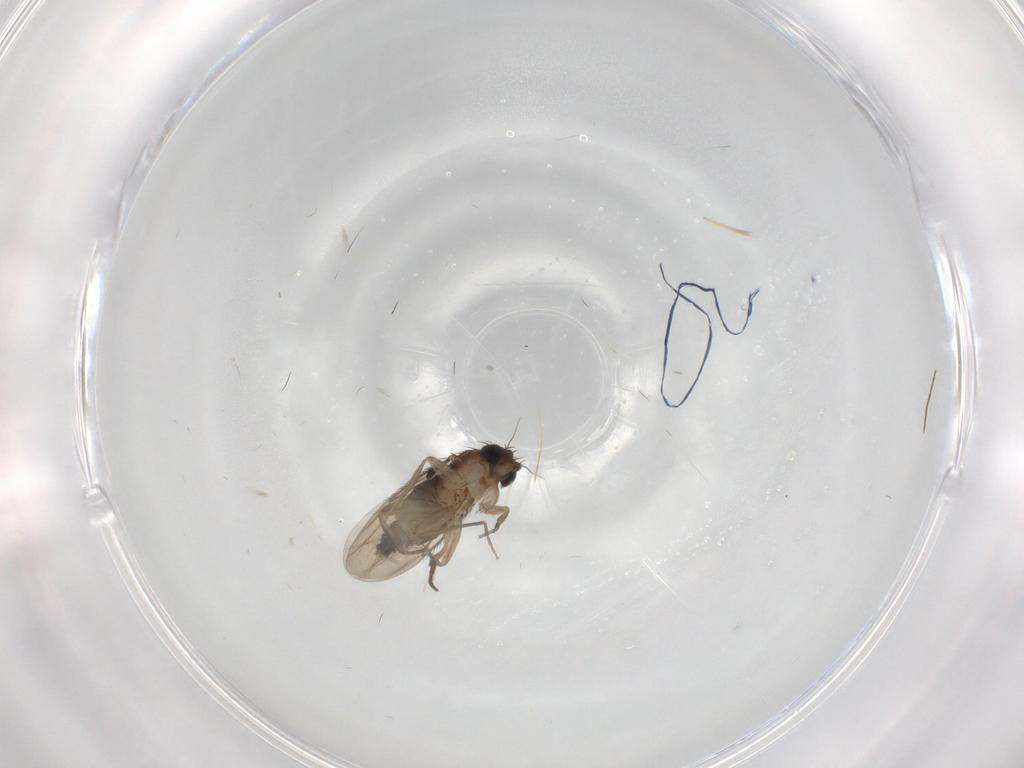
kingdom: Animalia
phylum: Arthropoda
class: Insecta
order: Diptera
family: Phoridae
